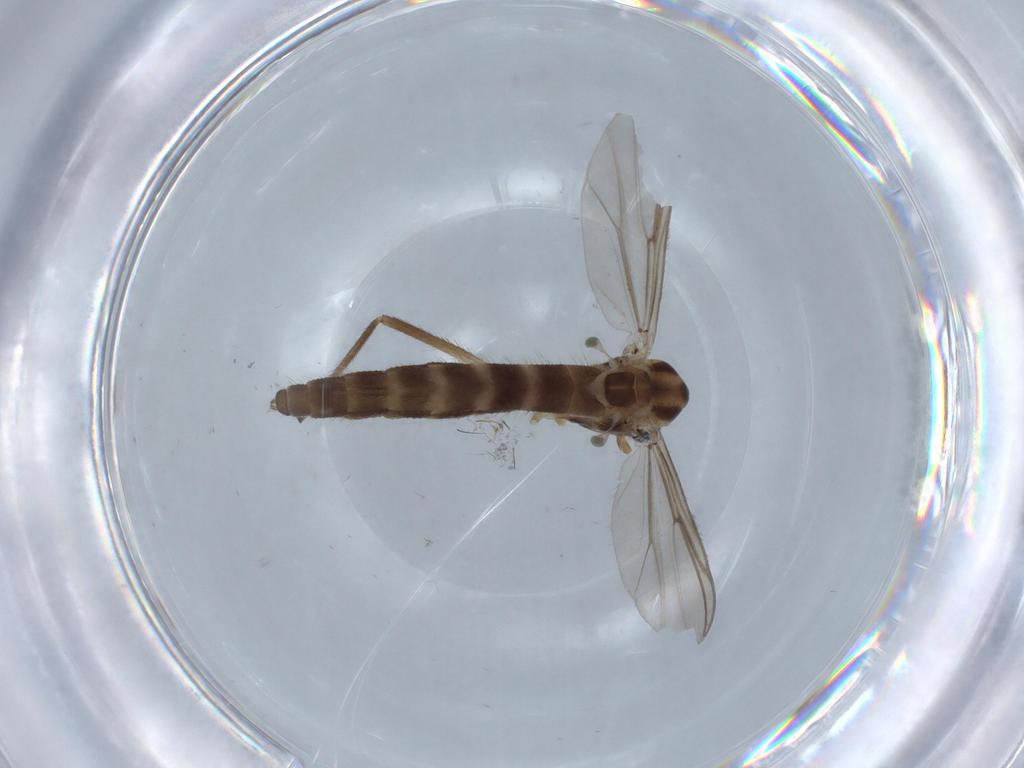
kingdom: Animalia
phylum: Arthropoda
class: Insecta
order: Diptera
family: Chironomidae
